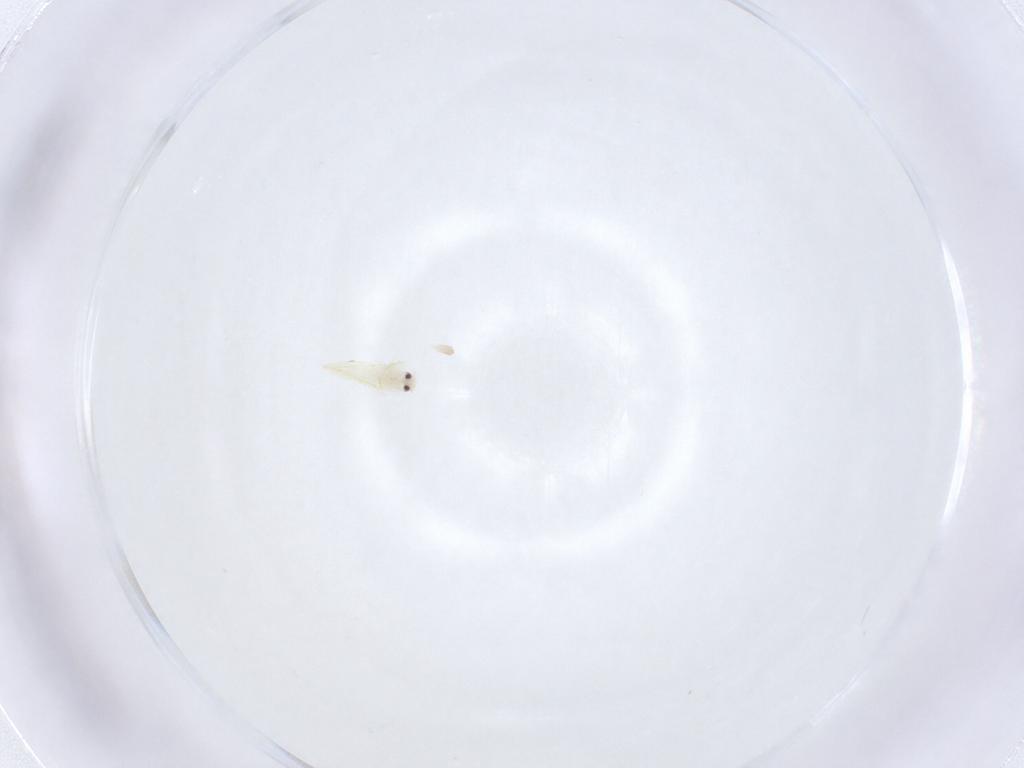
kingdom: Animalia
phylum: Arthropoda
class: Insecta
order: Hemiptera
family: Aleyrodidae
